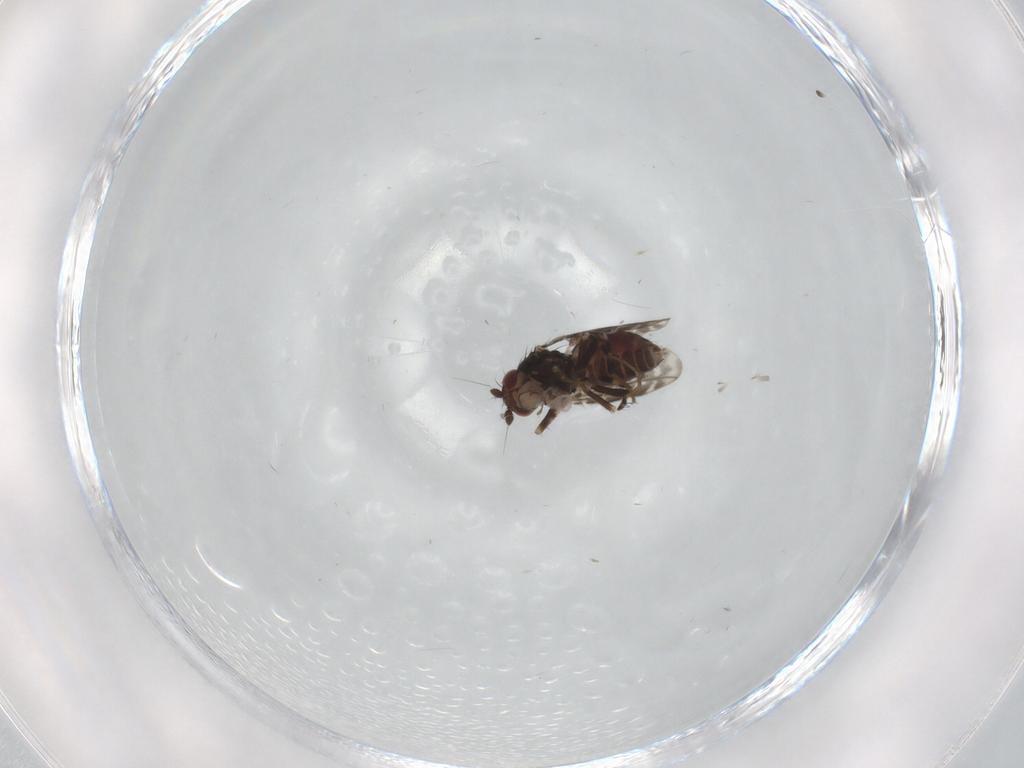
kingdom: Animalia
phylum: Arthropoda
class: Insecta
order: Diptera
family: Sphaeroceridae
